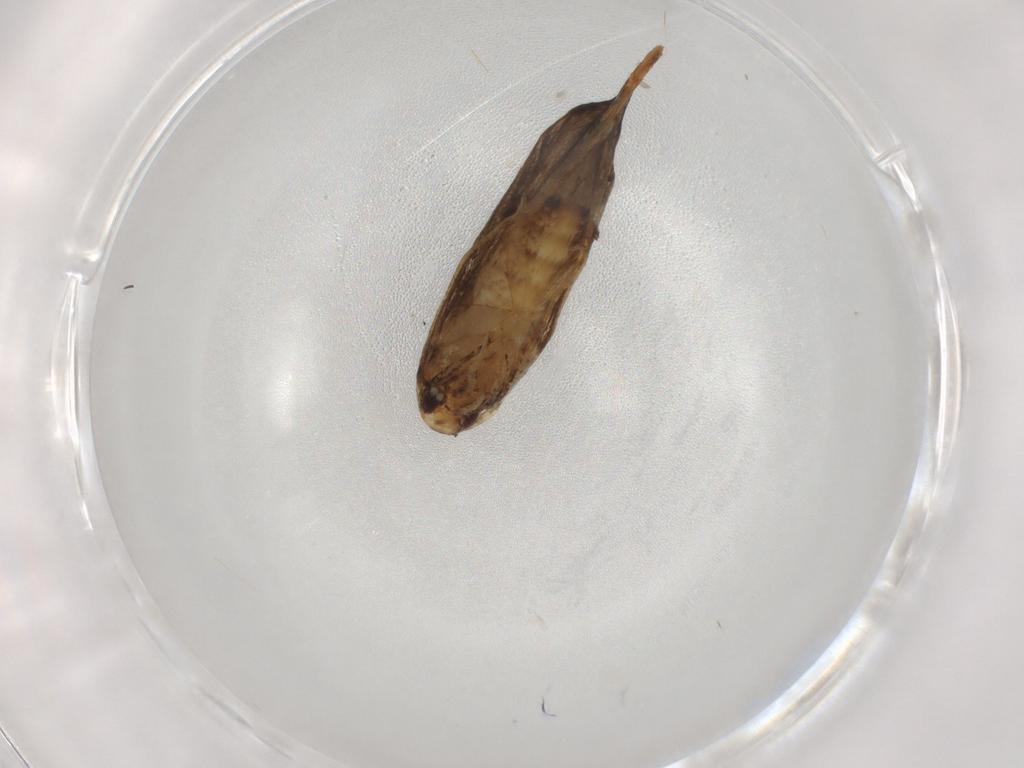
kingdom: Animalia
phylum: Arthropoda
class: Insecta
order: Lepidoptera
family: Cosmopterigidae
